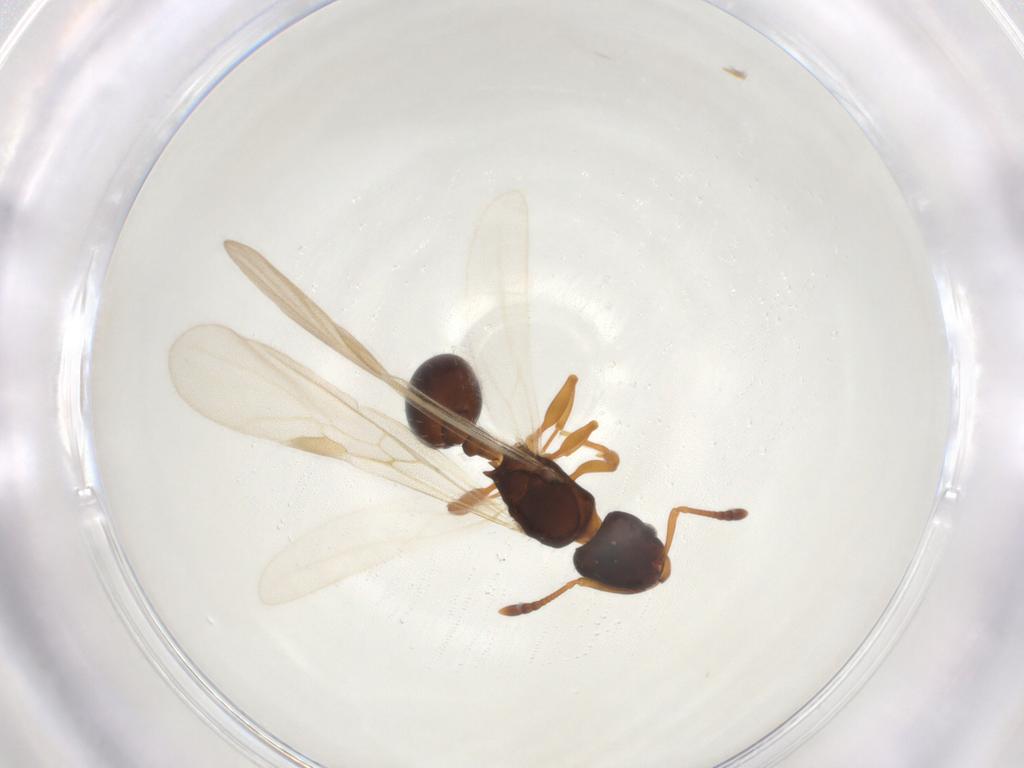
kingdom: Animalia
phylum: Arthropoda
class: Insecta
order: Hymenoptera
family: Formicidae
